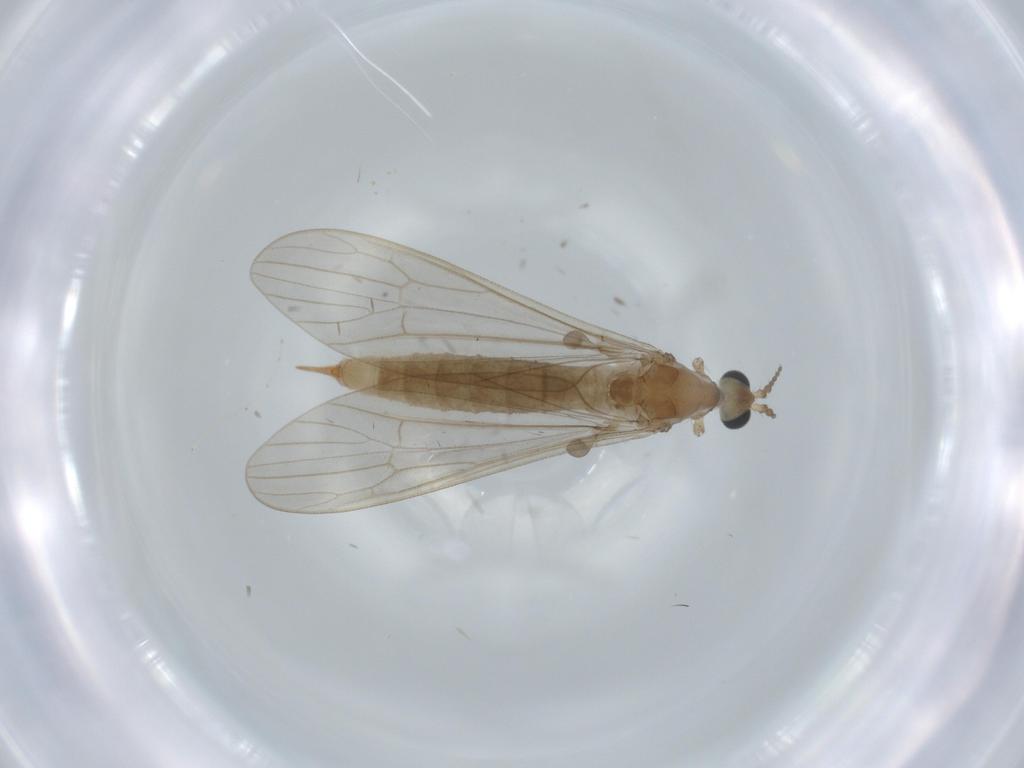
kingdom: Animalia
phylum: Arthropoda
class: Insecta
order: Diptera
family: Limoniidae
